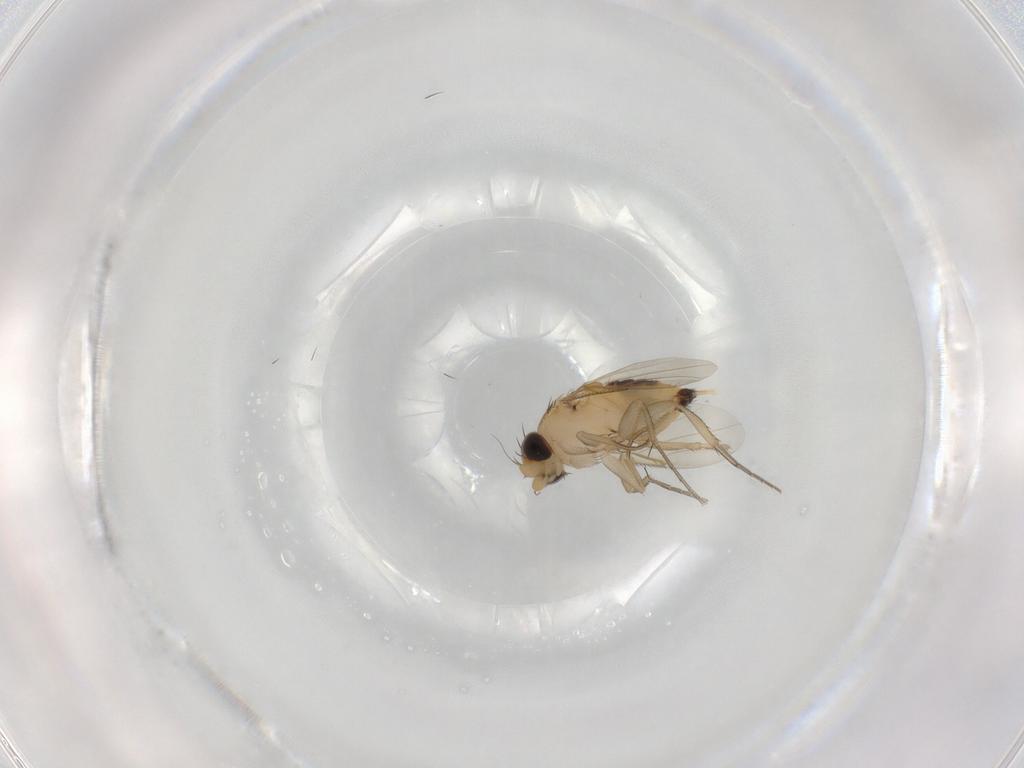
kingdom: Animalia
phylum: Arthropoda
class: Insecta
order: Diptera
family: Phoridae
